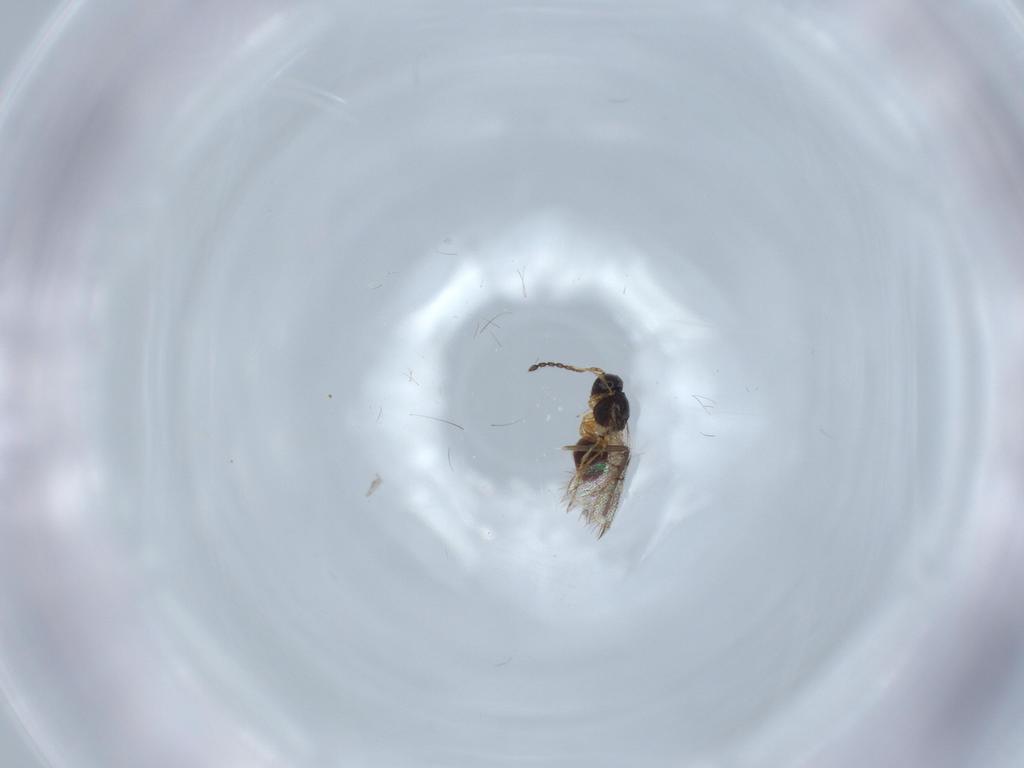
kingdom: Animalia
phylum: Arthropoda
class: Insecta
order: Hymenoptera
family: Figitidae
